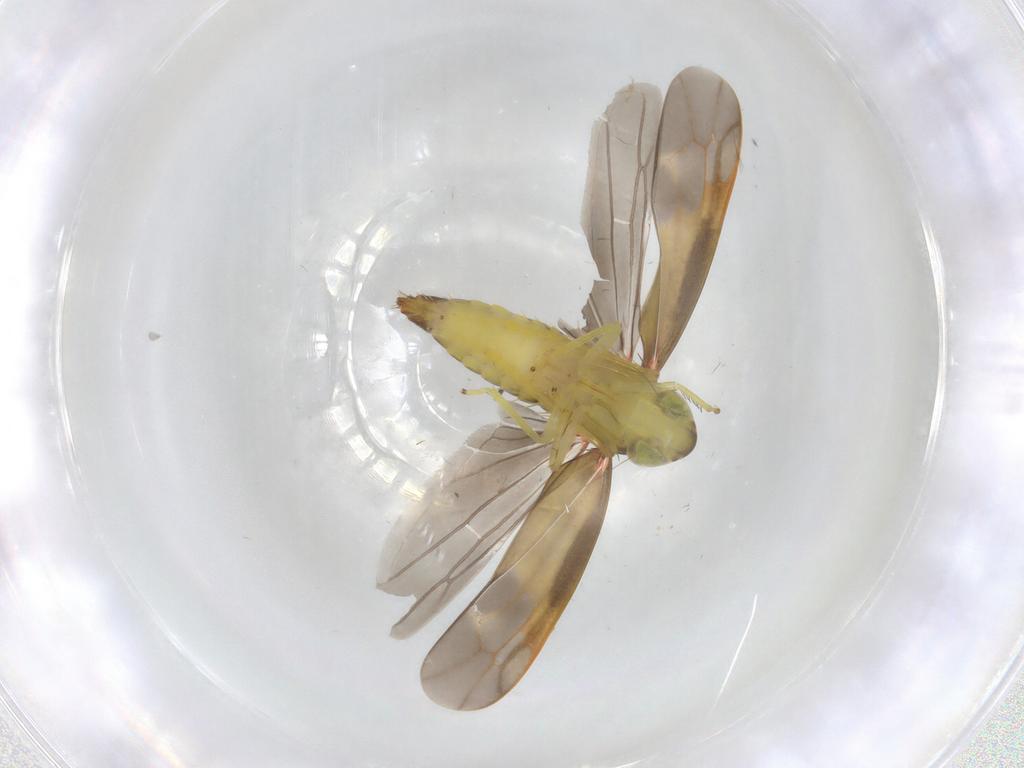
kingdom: Animalia
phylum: Arthropoda
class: Insecta
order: Hemiptera
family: Cicadellidae
